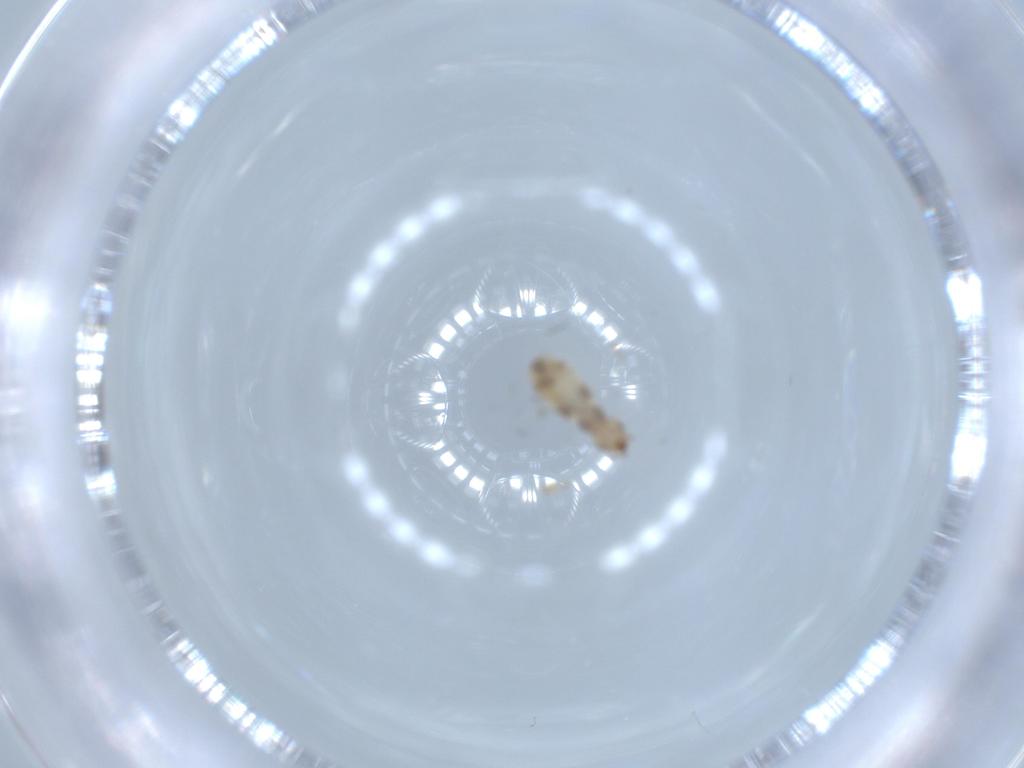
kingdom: Animalia
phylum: Arthropoda
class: Insecta
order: Psocodea
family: Liposcelididae
